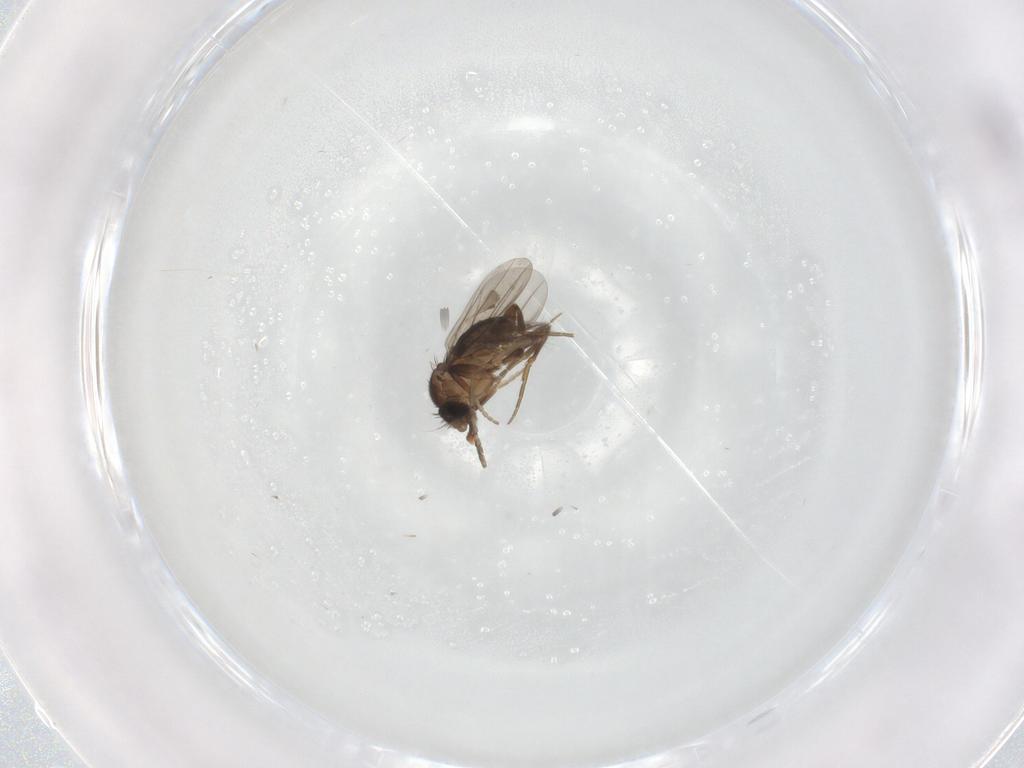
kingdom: Animalia
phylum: Arthropoda
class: Insecta
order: Diptera
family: Phoridae
